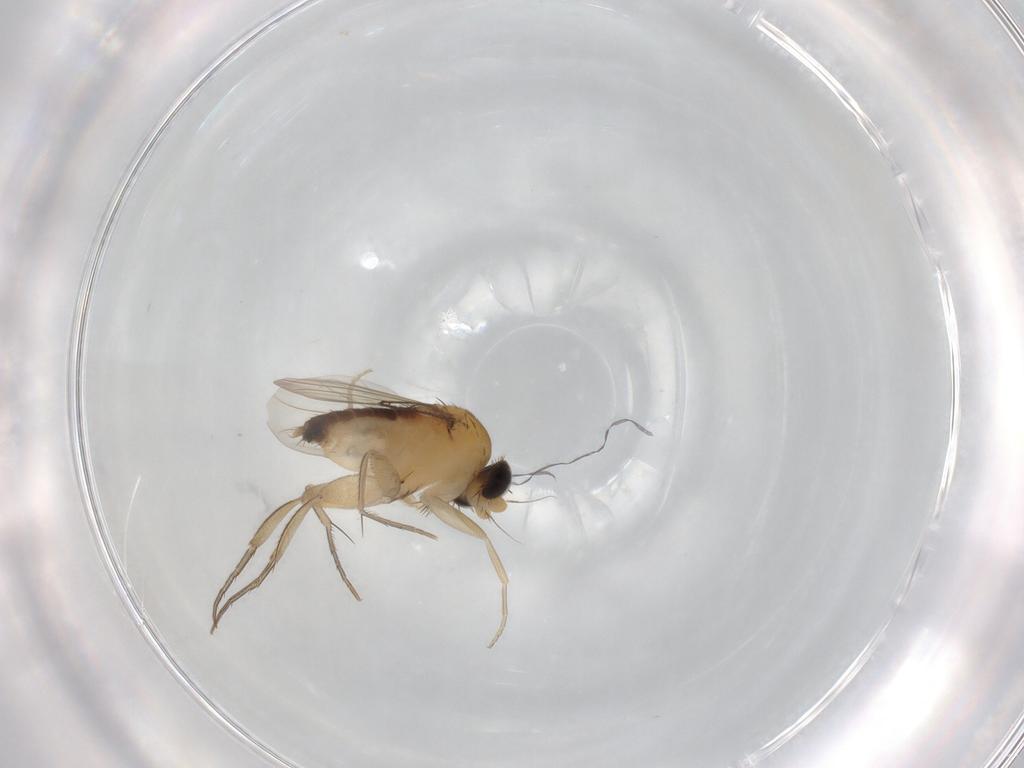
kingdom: Animalia
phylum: Arthropoda
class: Insecta
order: Diptera
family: Phoridae
